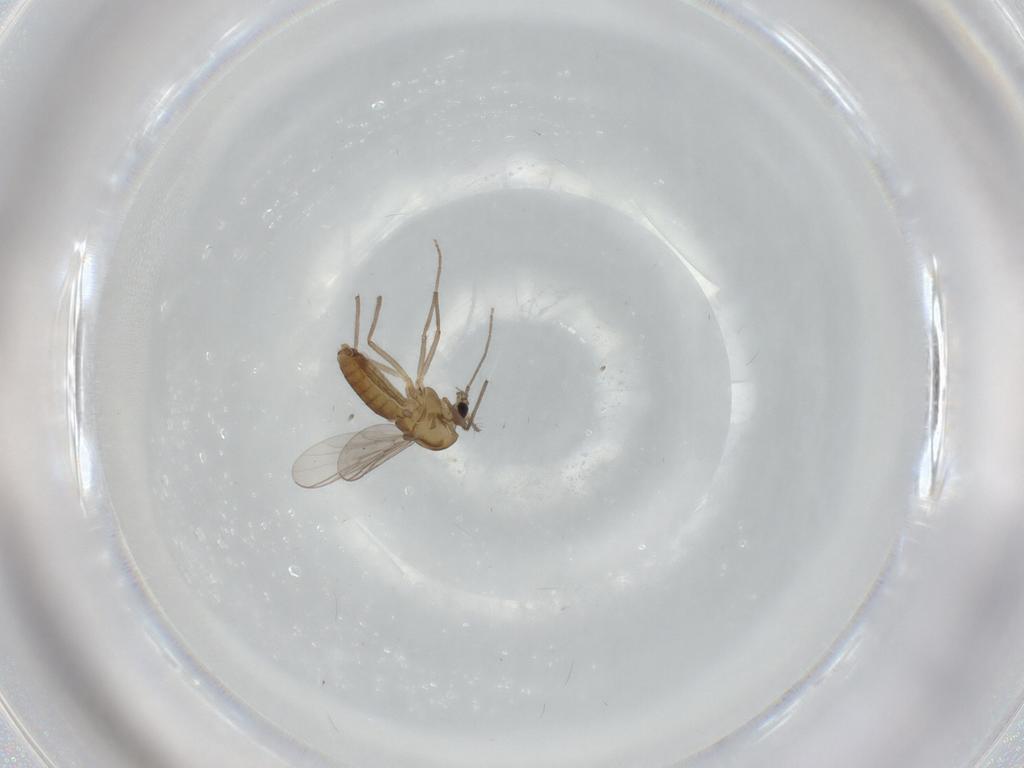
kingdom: Animalia
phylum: Arthropoda
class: Insecta
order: Diptera
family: Chironomidae
